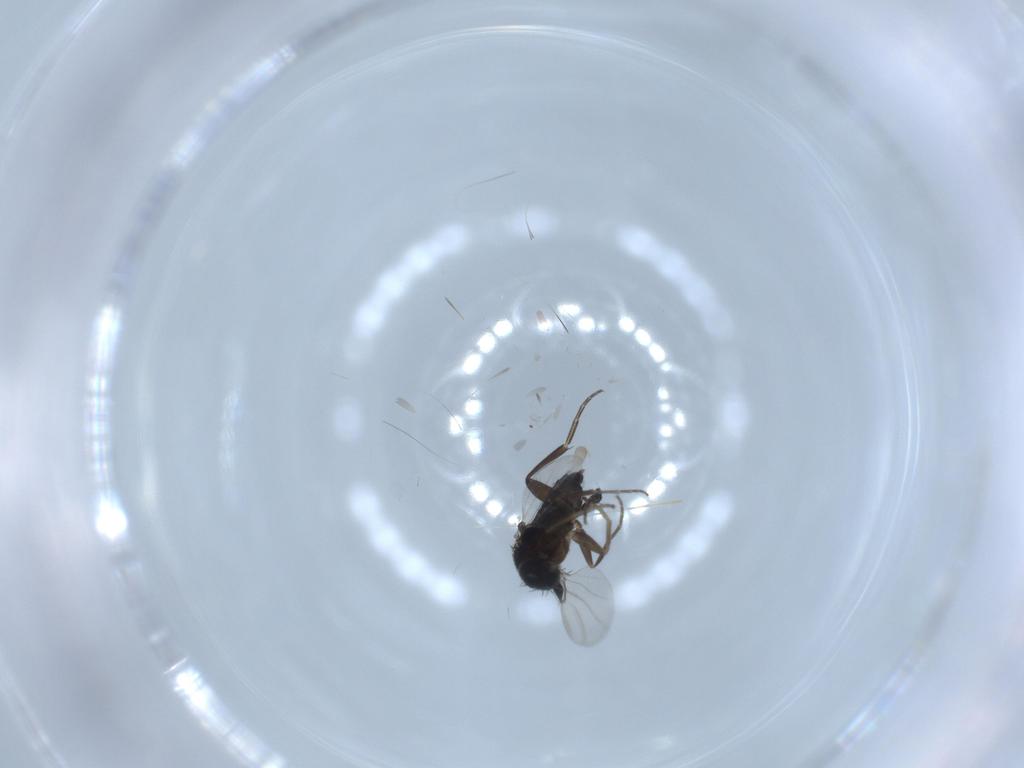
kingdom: Animalia
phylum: Arthropoda
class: Insecta
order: Diptera
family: Phoridae
